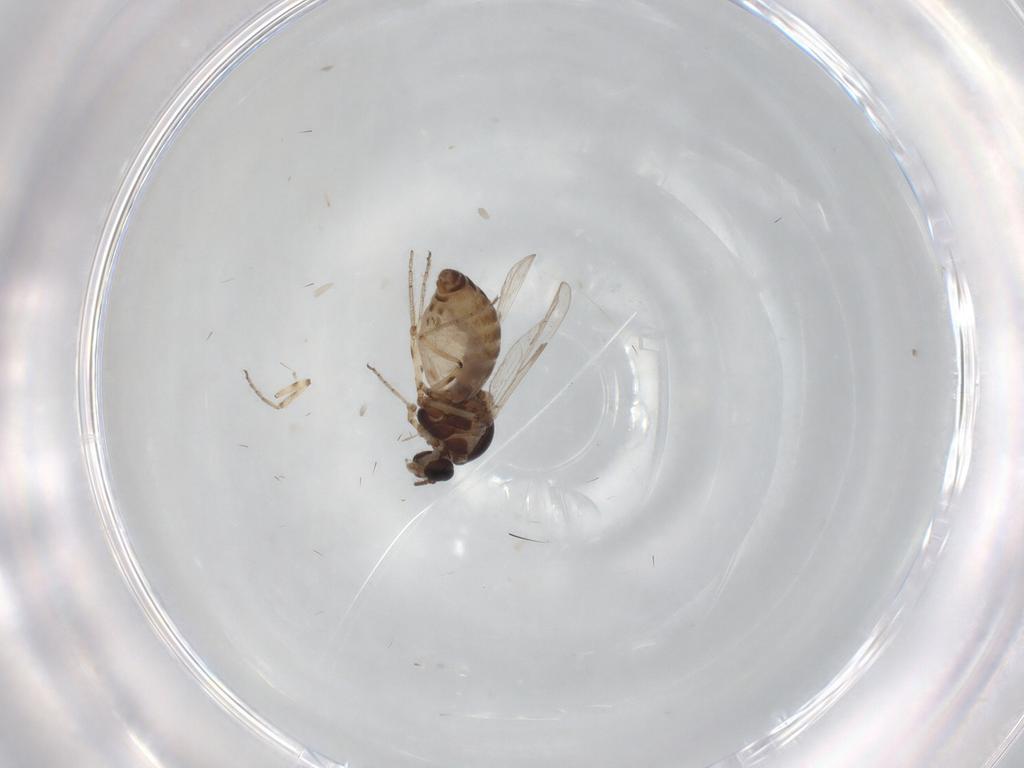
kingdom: Animalia
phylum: Arthropoda
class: Insecta
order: Diptera
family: Ceratopogonidae
